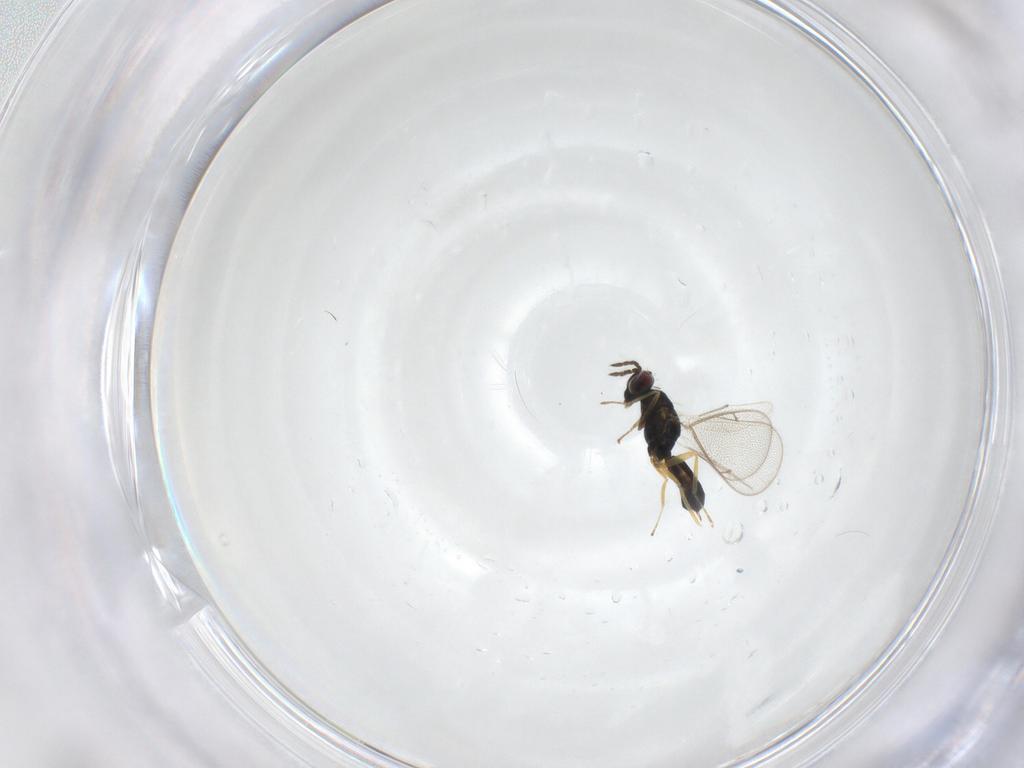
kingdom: Animalia
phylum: Arthropoda
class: Insecta
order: Hymenoptera
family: Eulophidae
